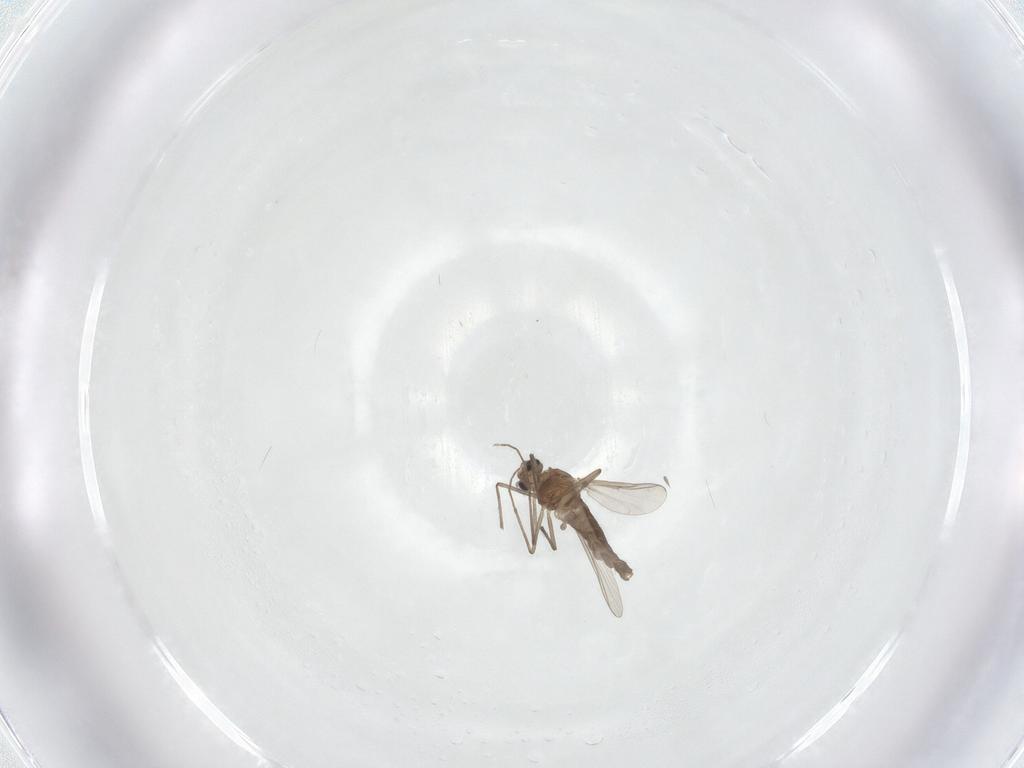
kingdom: Animalia
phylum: Arthropoda
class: Insecta
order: Diptera
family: Chironomidae
